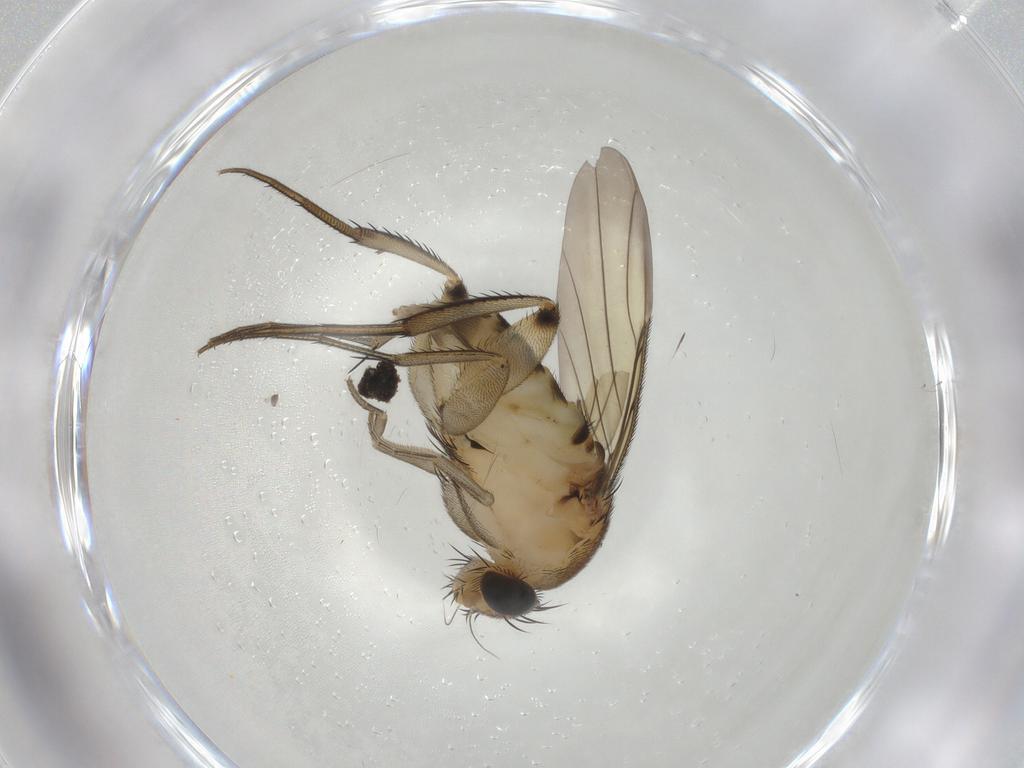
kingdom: Animalia
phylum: Arthropoda
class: Insecta
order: Diptera
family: Phoridae
